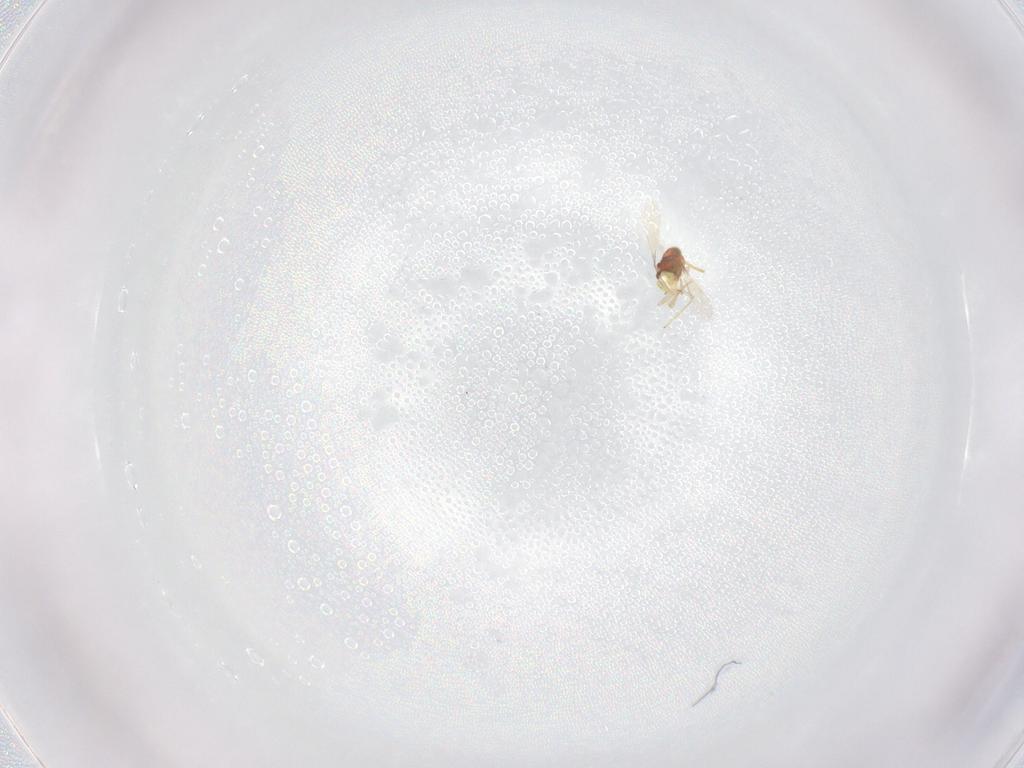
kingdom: Animalia
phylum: Arthropoda
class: Insecta
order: Hymenoptera
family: Aphelinidae
